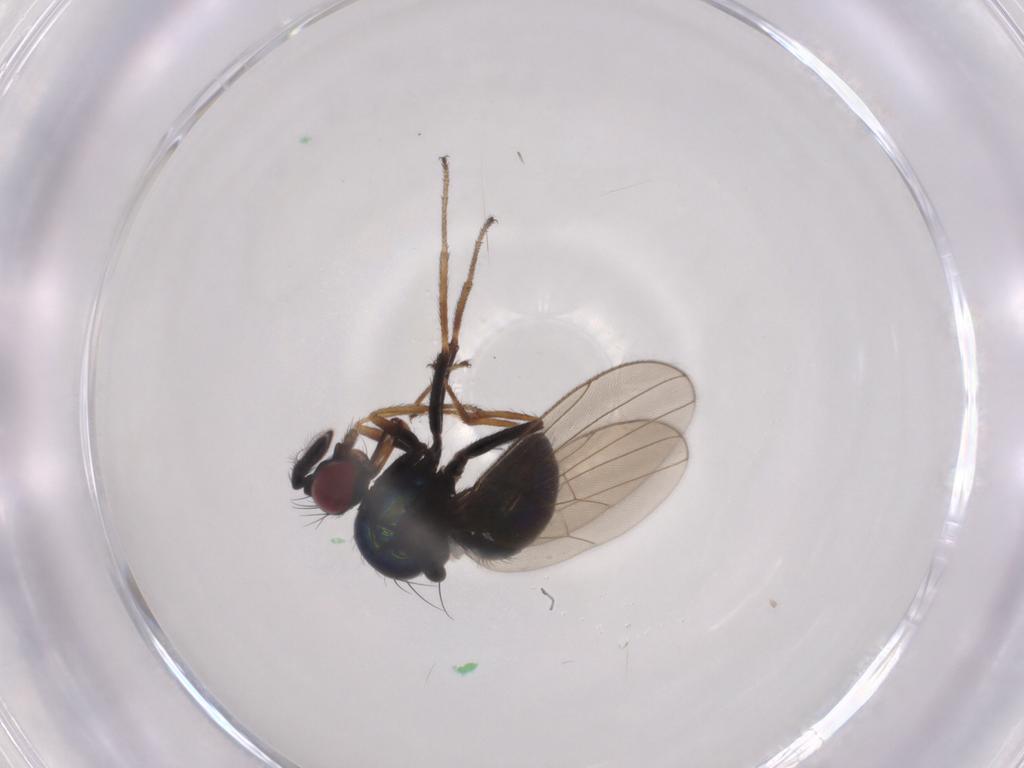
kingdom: Animalia
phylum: Arthropoda
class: Insecta
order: Diptera
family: Ephydridae
